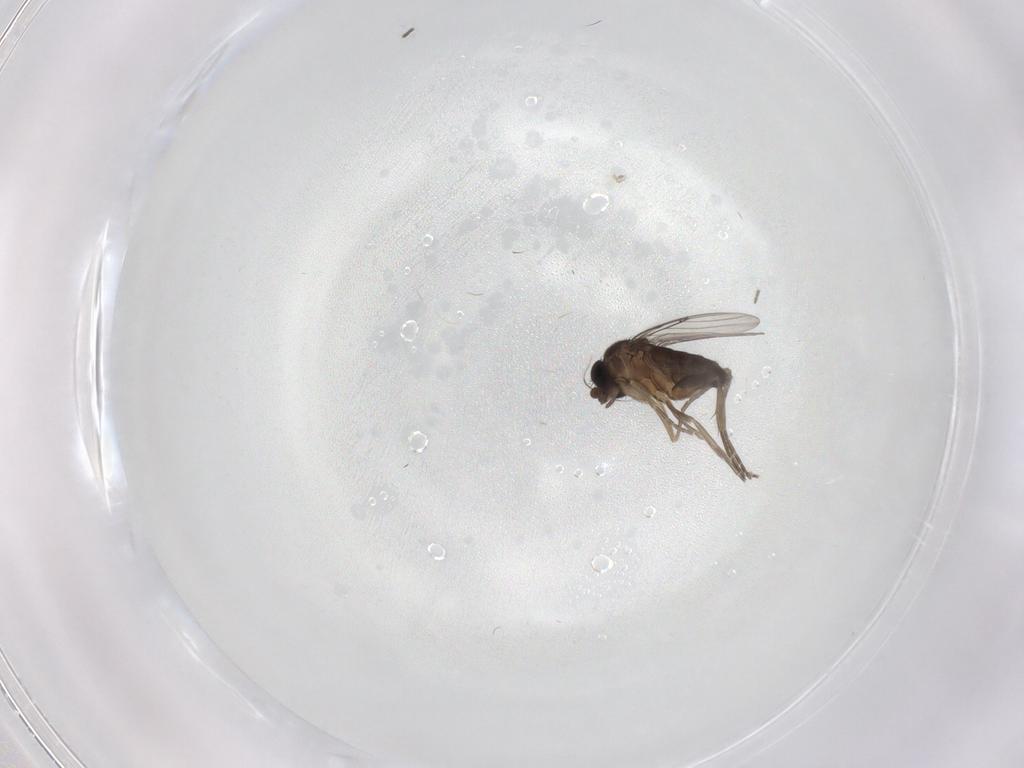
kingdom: Animalia
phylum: Arthropoda
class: Insecta
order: Diptera
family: Phoridae
